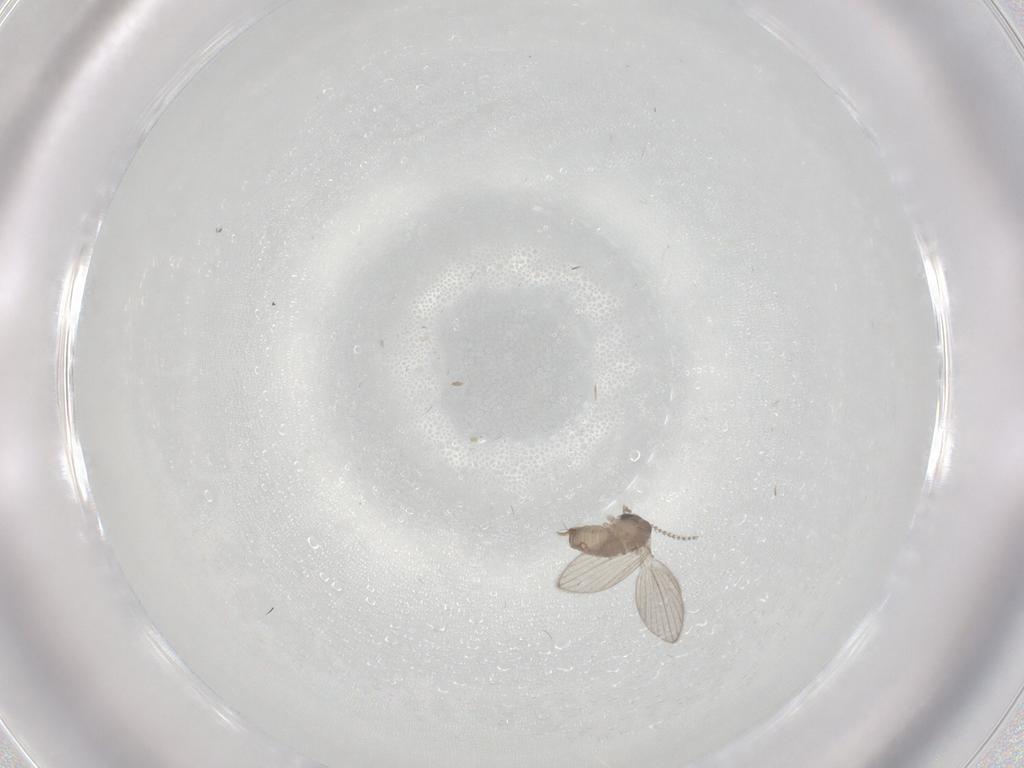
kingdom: Animalia
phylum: Arthropoda
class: Insecta
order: Diptera
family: Psychodidae
